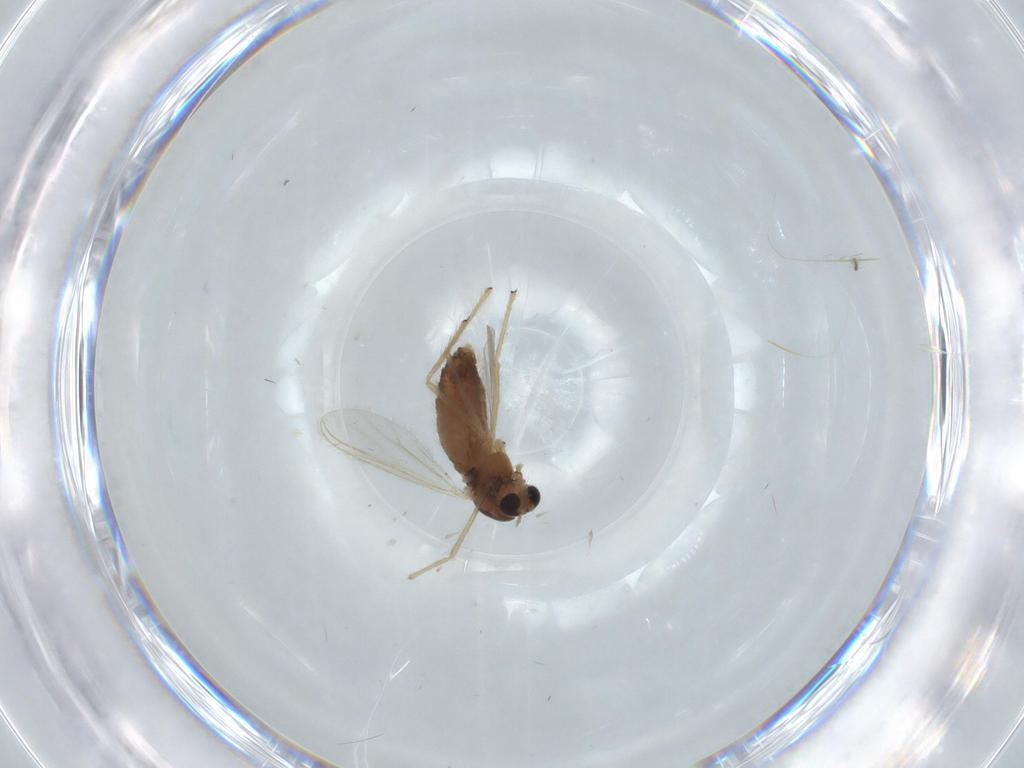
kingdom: Animalia
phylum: Arthropoda
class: Insecta
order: Diptera
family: Chironomidae
